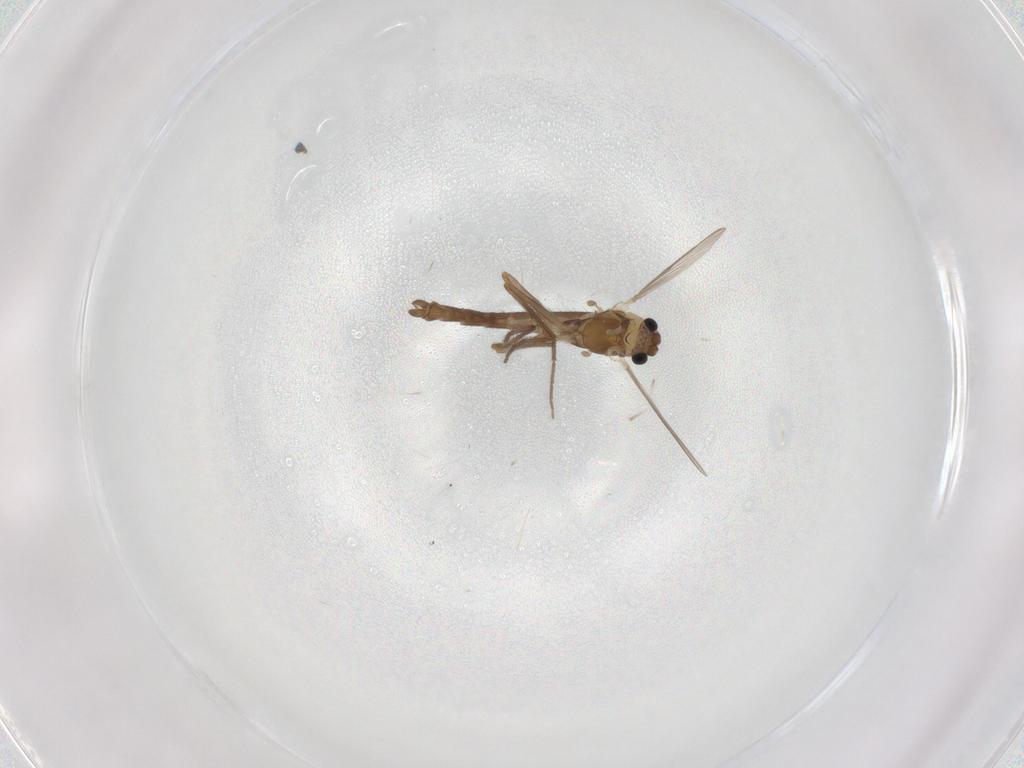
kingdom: Animalia
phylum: Arthropoda
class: Insecta
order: Diptera
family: Chironomidae
